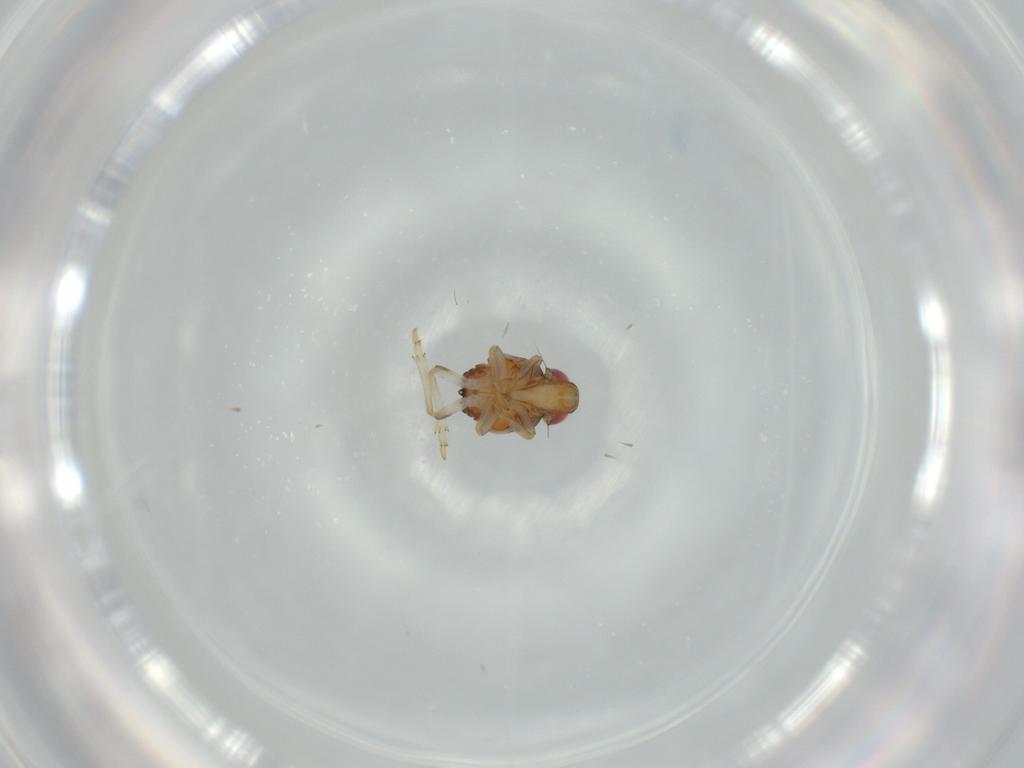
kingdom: Animalia
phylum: Arthropoda
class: Insecta
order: Hemiptera
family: Issidae
